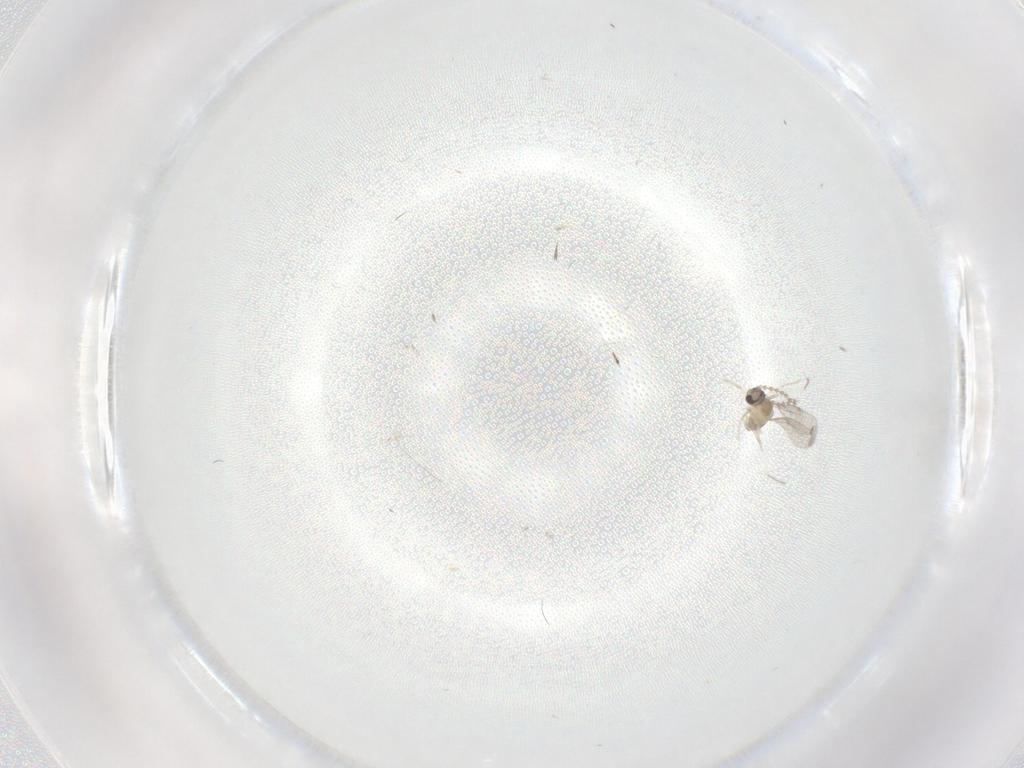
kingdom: Animalia
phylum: Arthropoda
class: Insecta
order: Diptera
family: Cecidomyiidae
